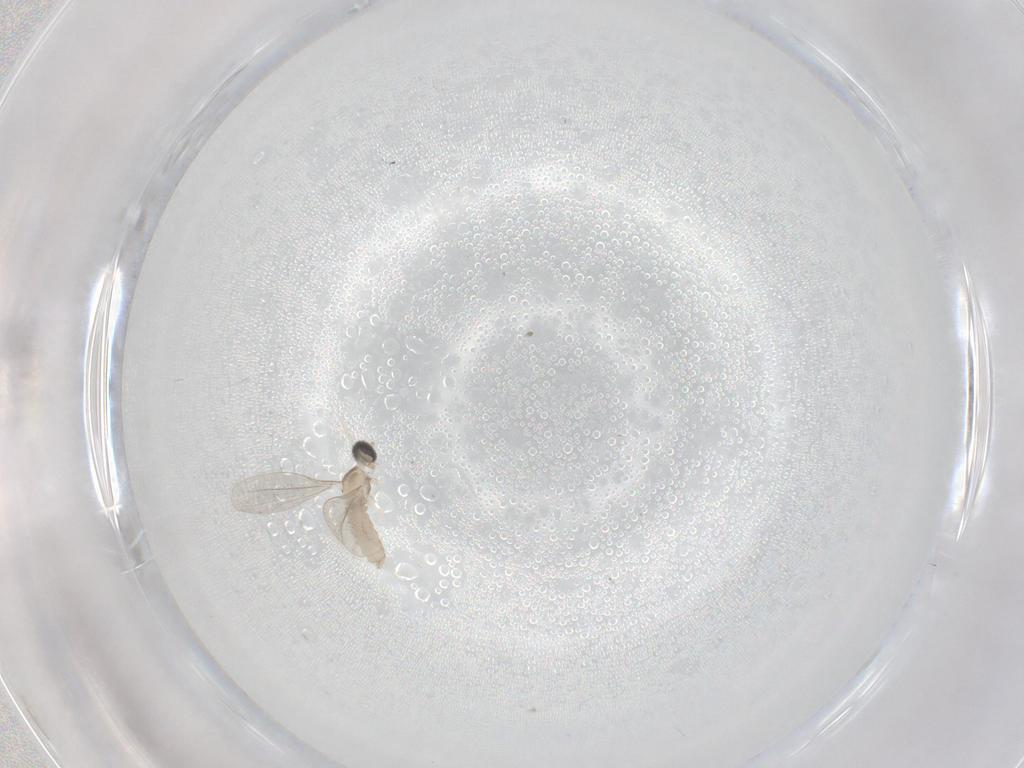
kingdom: Animalia
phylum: Arthropoda
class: Insecta
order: Diptera
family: Cecidomyiidae
